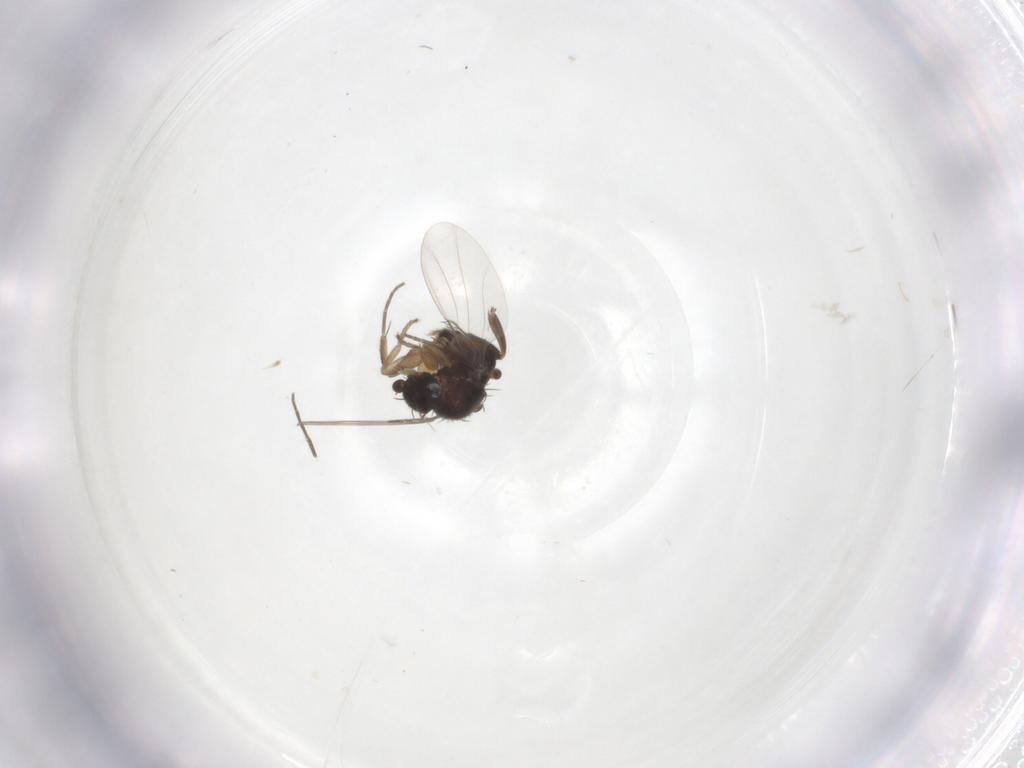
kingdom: Animalia
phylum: Arthropoda
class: Insecta
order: Diptera
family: Phoridae
